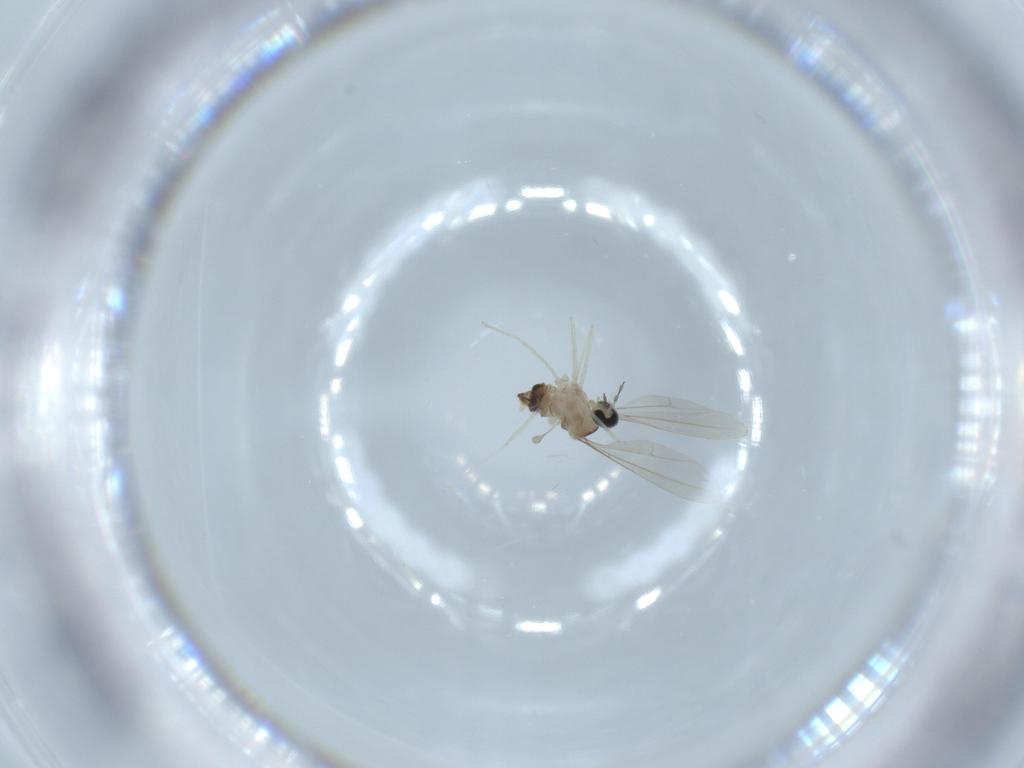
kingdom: Animalia
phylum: Arthropoda
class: Insecta
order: Diptera
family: Cecidomyiidae
